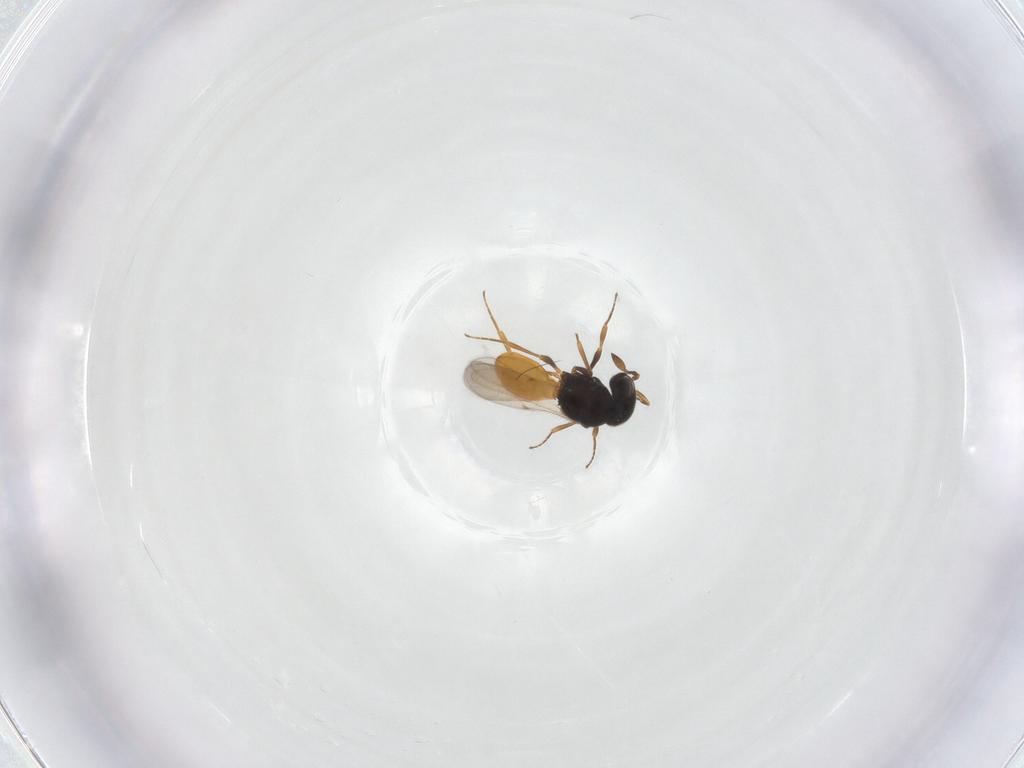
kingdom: Animalia
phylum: Arthropoda
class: Insecta
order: Hymenoptera
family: Scelionidae
